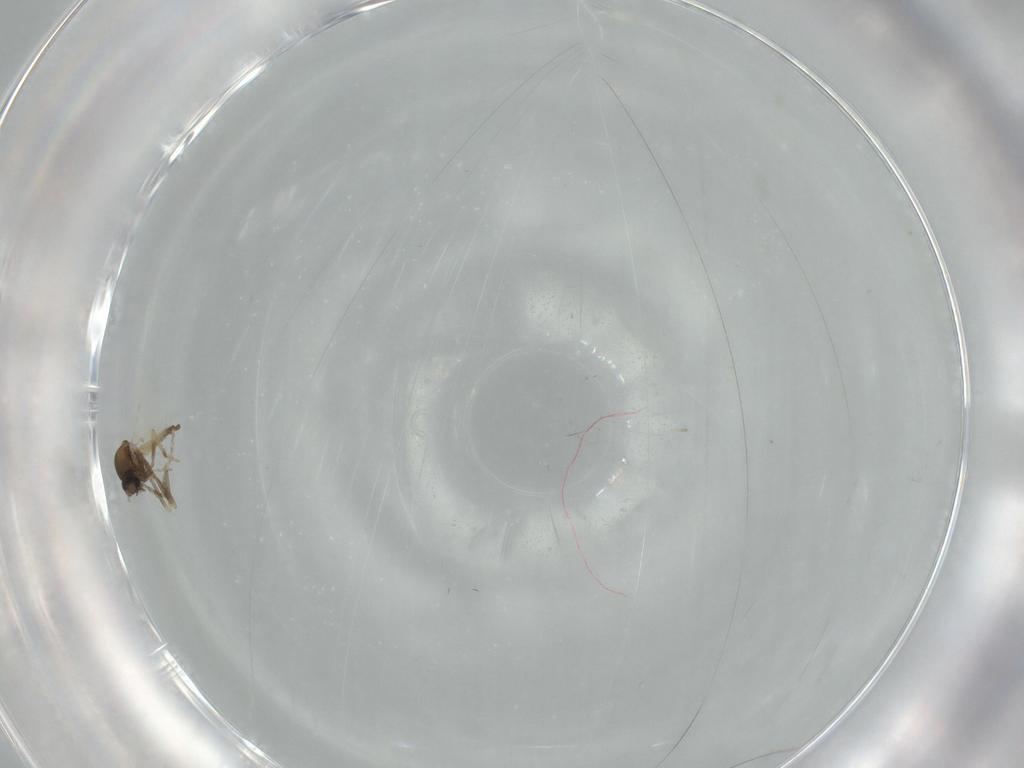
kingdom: Animalia
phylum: Arthropoda
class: Insecta
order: Diptera
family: Ceratopogonidae
